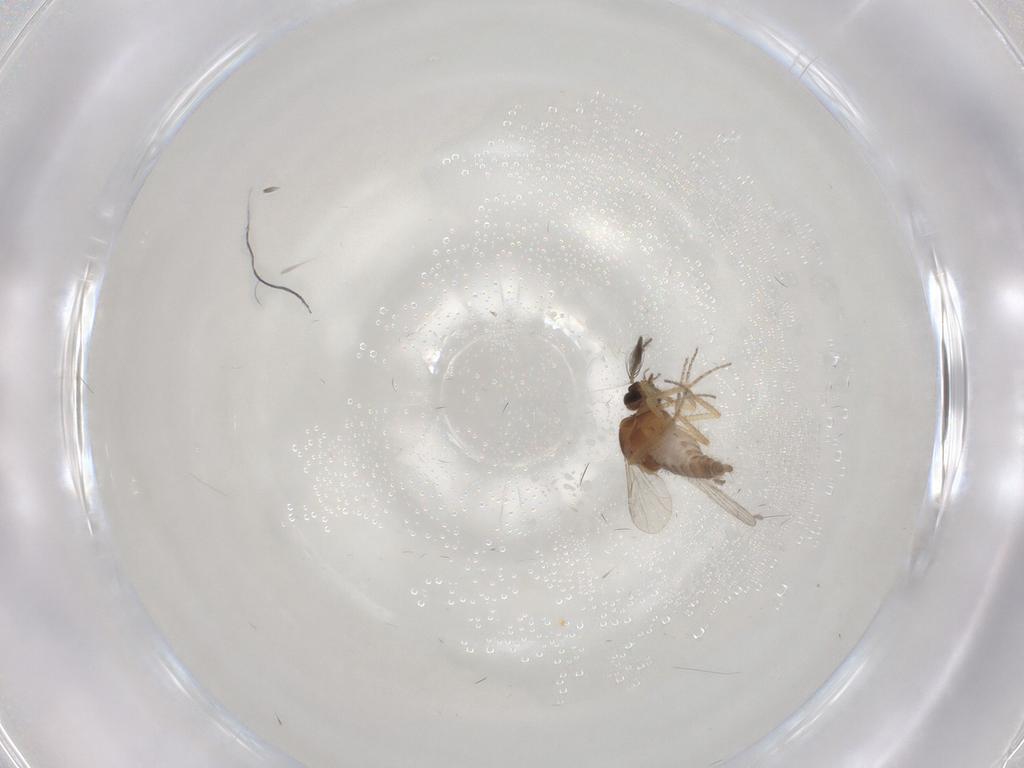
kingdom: Animalia
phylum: Arthropoda
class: Insecta
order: Diptera
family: Ceratopogonidae
